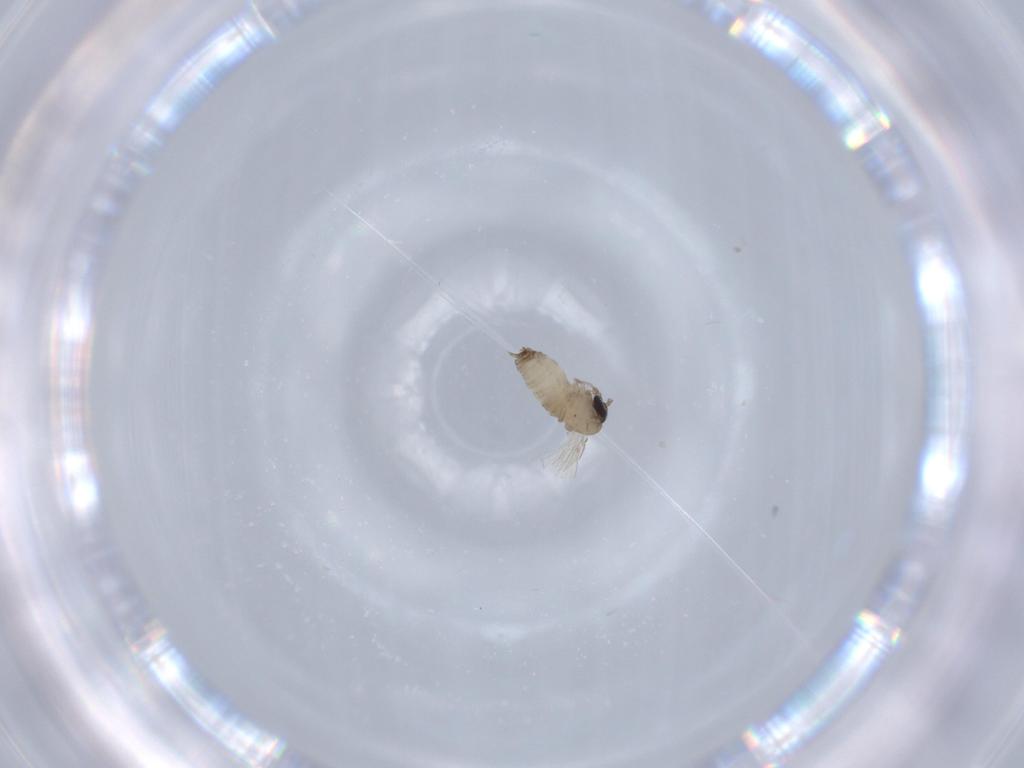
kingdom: Animalia
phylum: Arthropoda
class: Insecta
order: Diptera
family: Psychodidae
